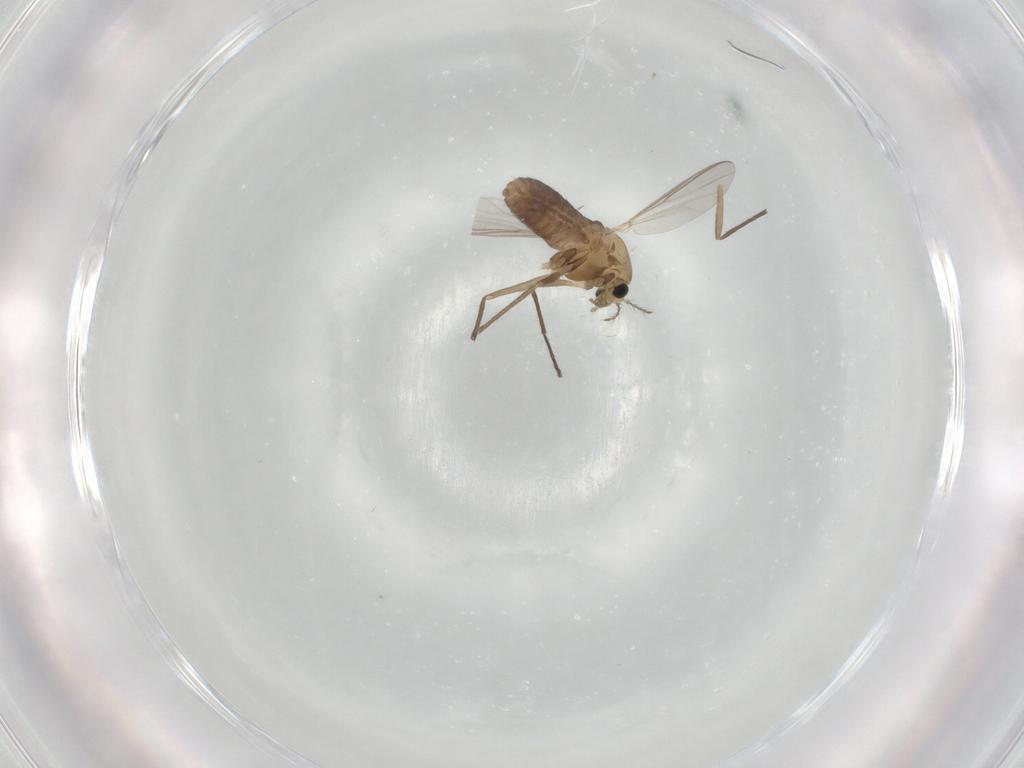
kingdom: Animalia
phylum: Arthropoda
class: Insecta
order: Diptera
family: Chironomidae
